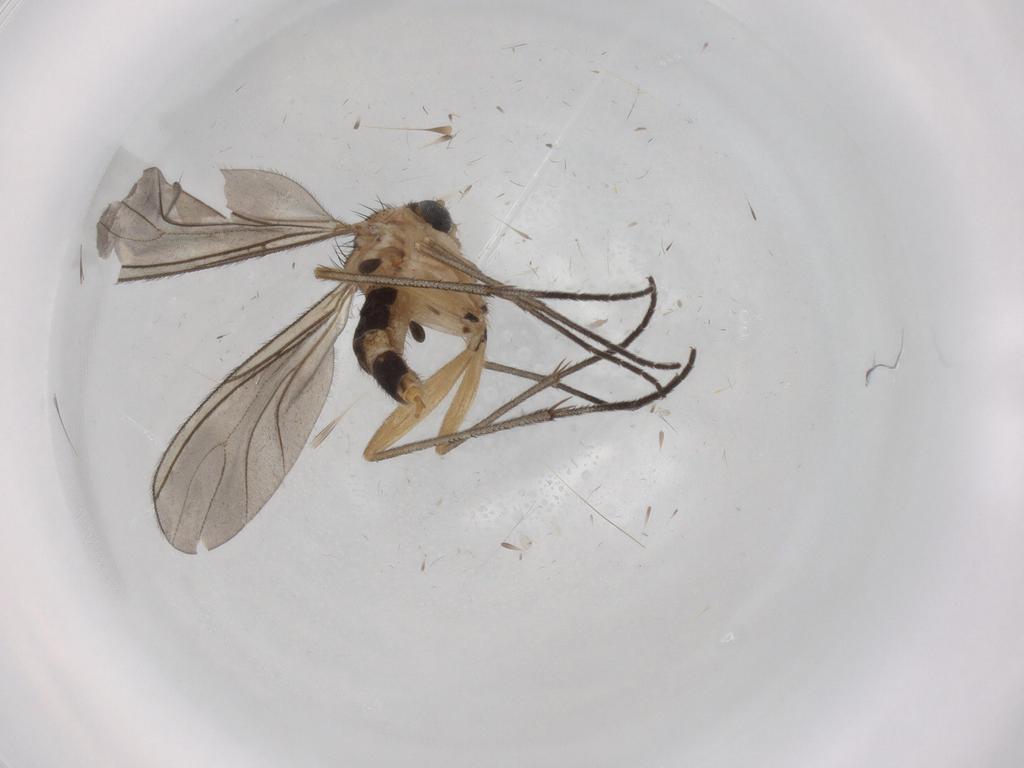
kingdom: Animalia
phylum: Arthropoda
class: Insecta
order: Diptera
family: Sciaridae
